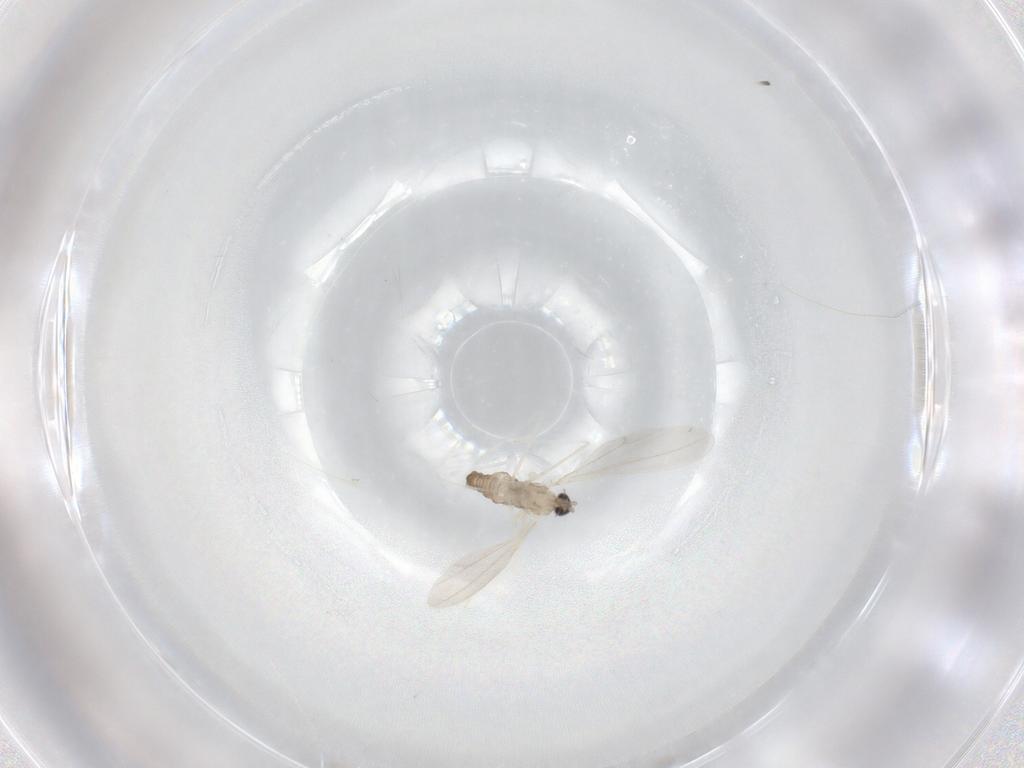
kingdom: Animalia
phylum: Arthropoda
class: Insecta
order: Diptera
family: Cecidomyiidae
